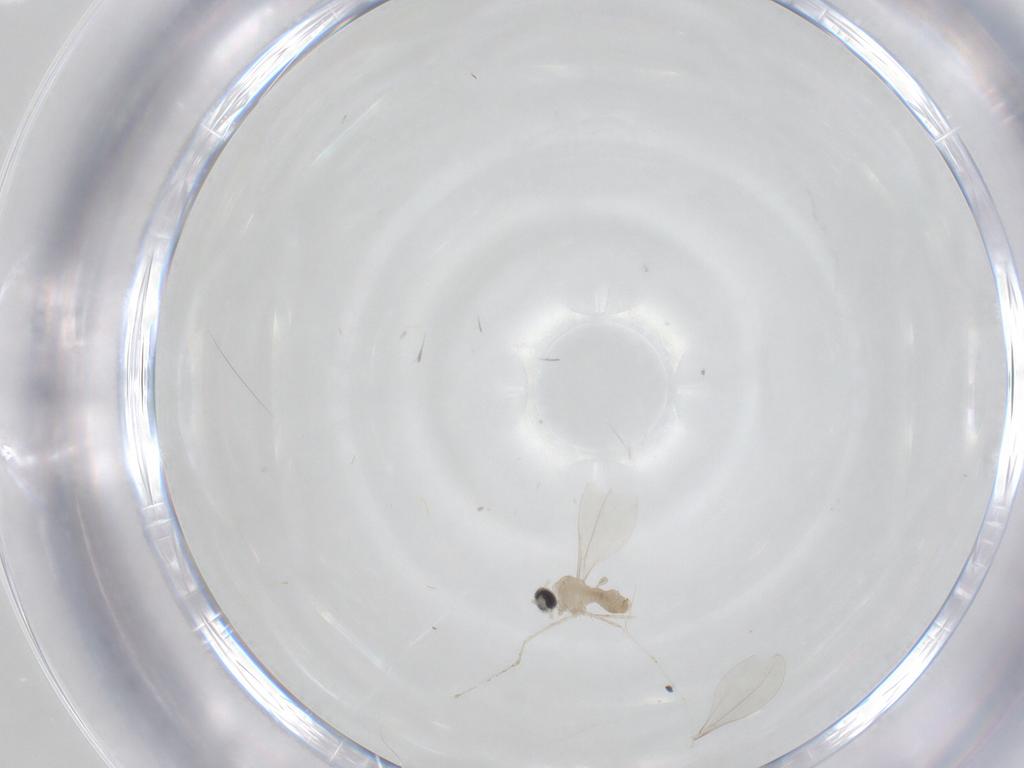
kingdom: Animalia
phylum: Arthropoda
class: Insecta
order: Diptera
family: Cecidomyiidae
